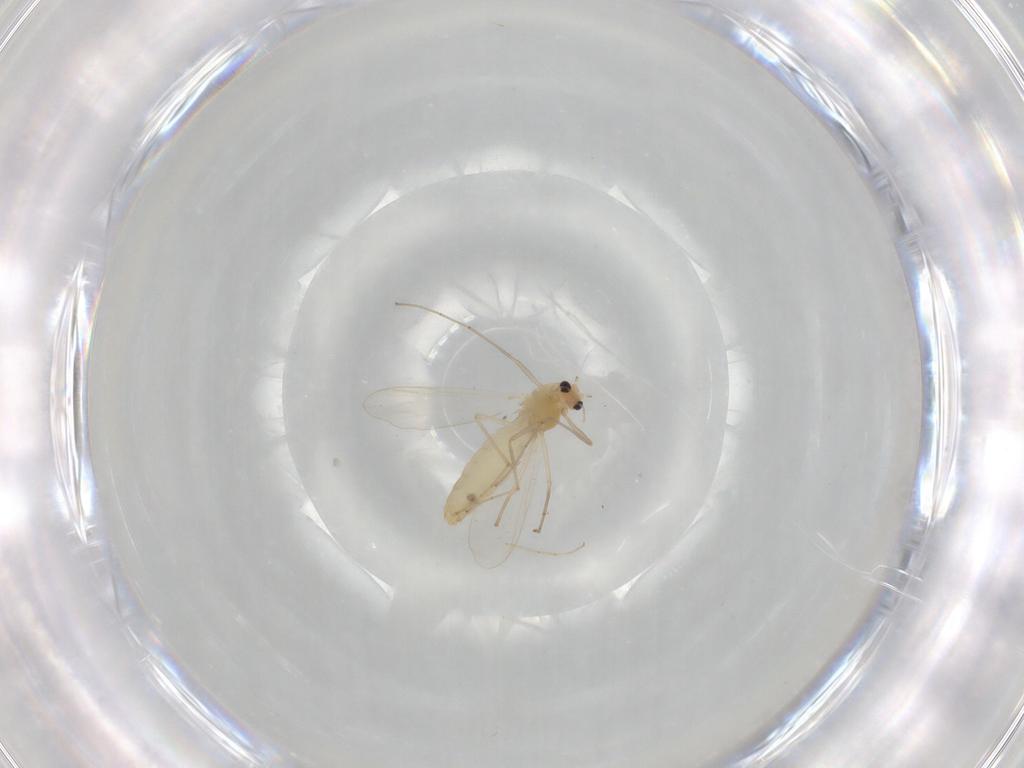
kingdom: Animalia
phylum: Arthropoda
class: Insecta
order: Diptera
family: Chironomidae
